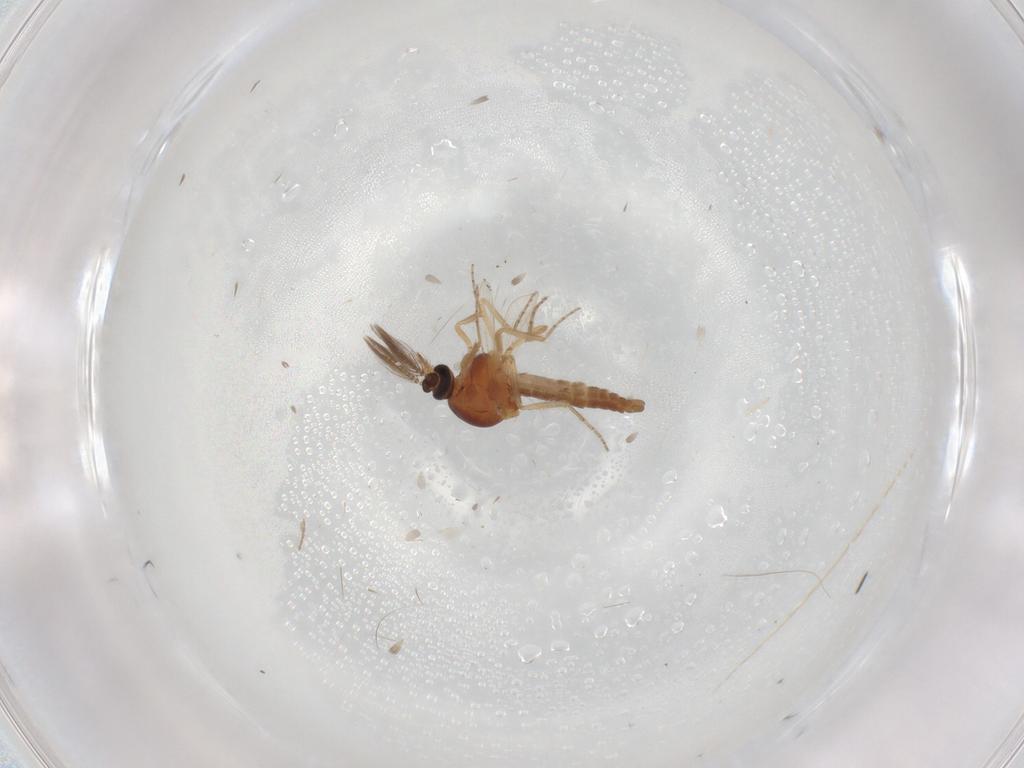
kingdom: Animalia
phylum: Arthropoda
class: Insecta
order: Diptera
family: Ceratopogonidae
